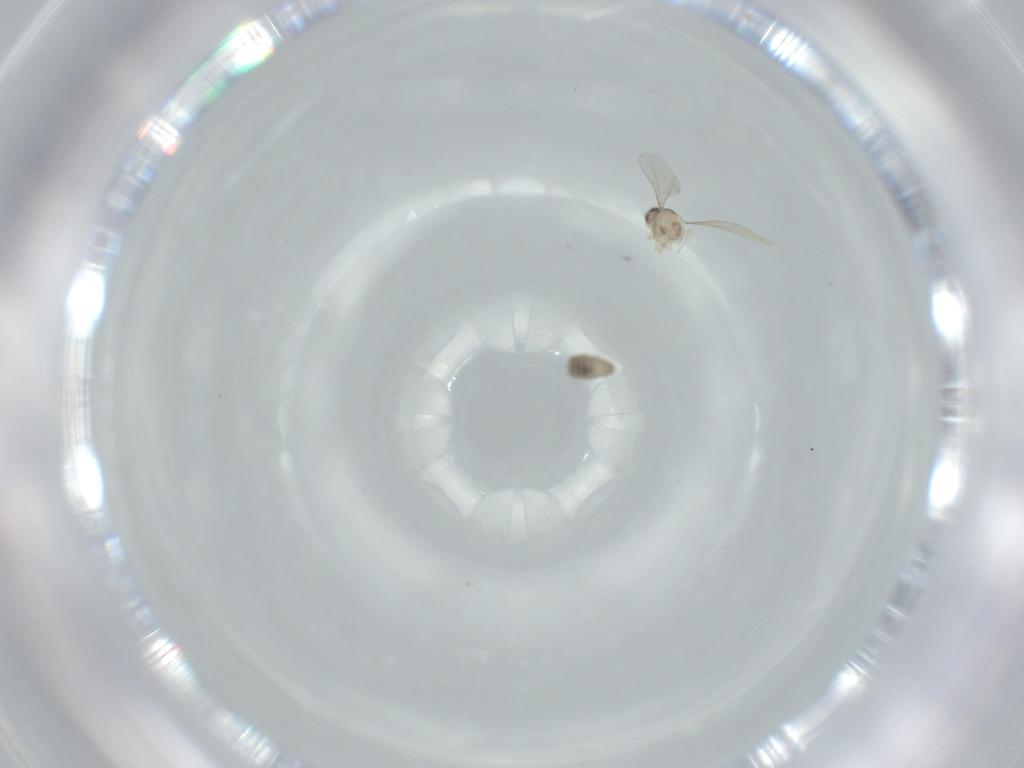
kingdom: Animalia
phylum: Arthropoda
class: Insecta
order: Diptera
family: Cecidomyiidae
